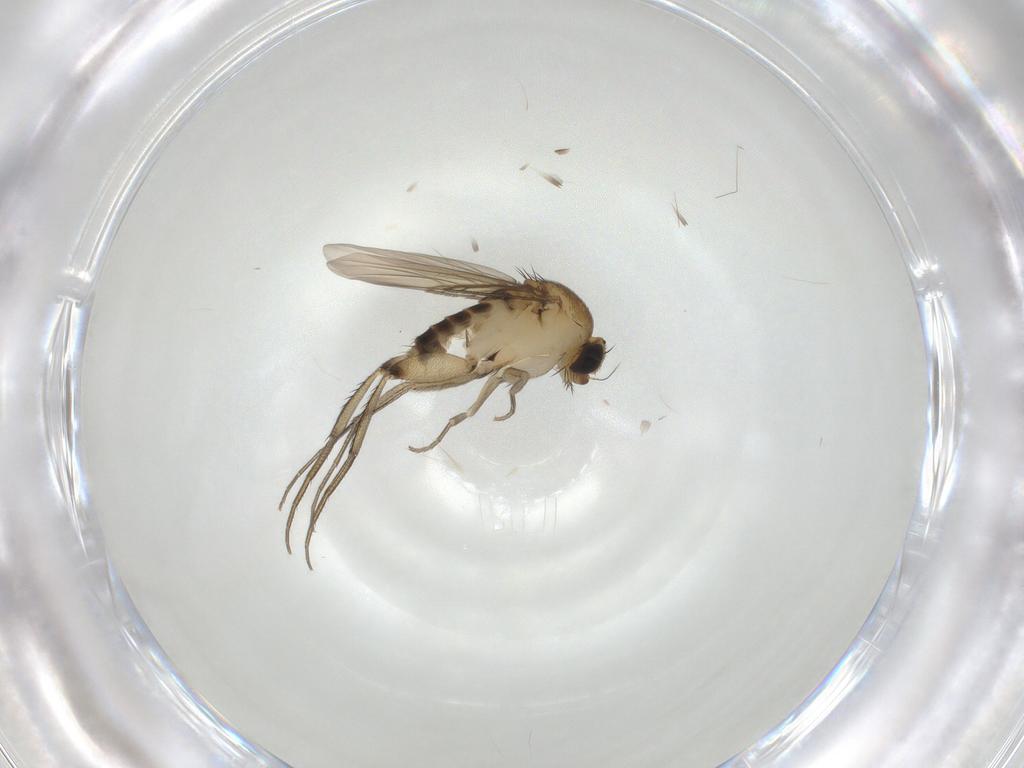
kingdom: Animalia
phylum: Arthropoda
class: Insecta
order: Diptera
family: Phoridae
